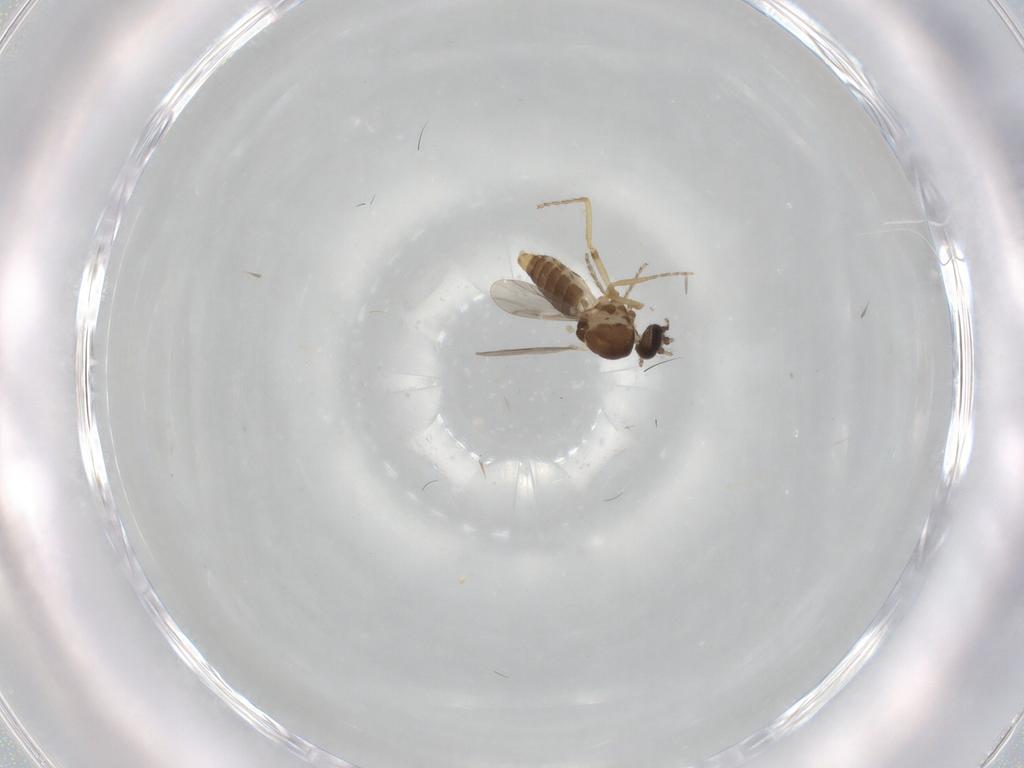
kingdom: Animalia
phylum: Arthropoda
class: Insecta
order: Diptera
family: Ceratopogonidae
